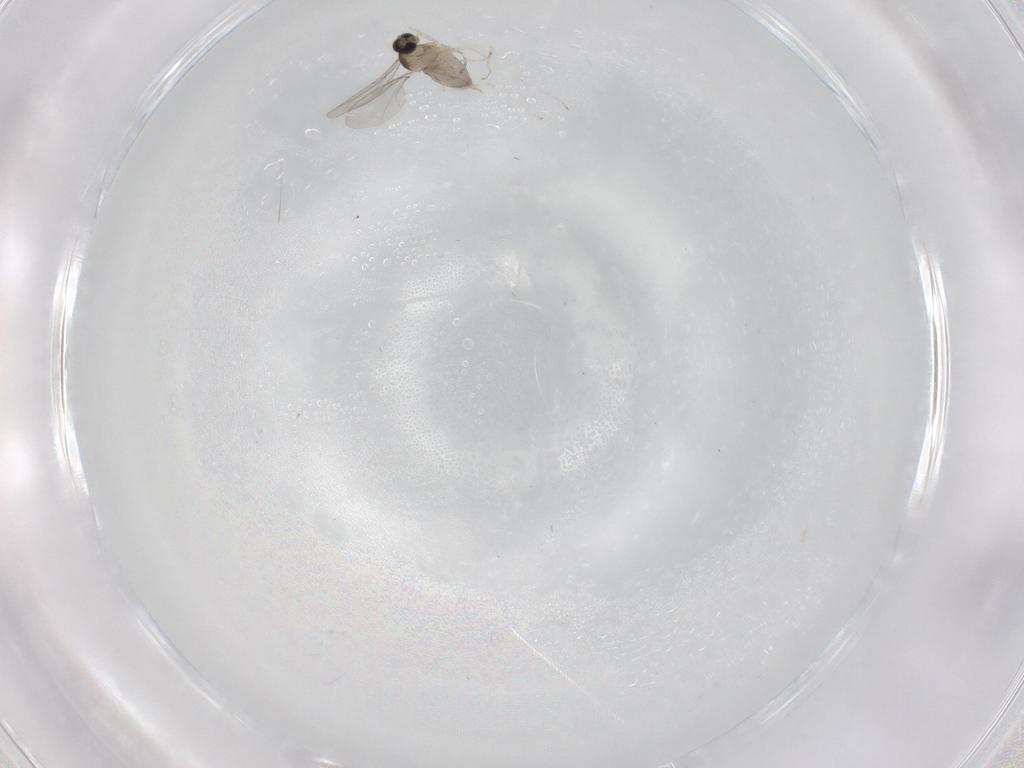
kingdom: Animalia
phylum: Arthropoda
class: Insecta
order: Diptera
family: Cecidomyiidae
